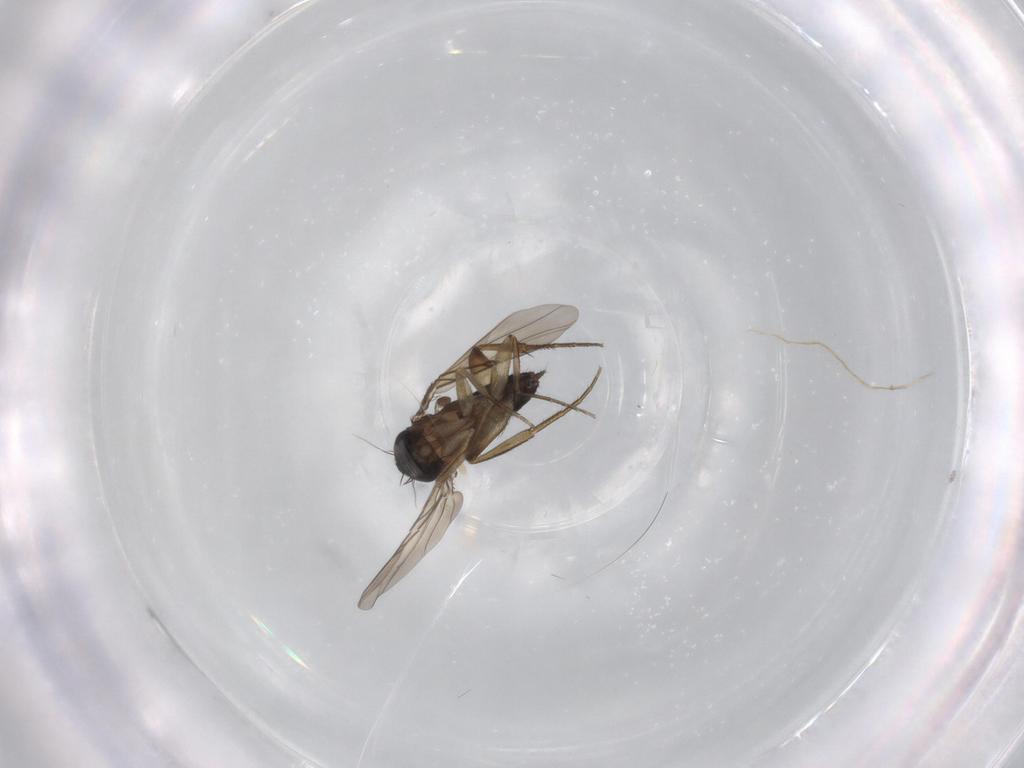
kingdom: Animalia
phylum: Arthropoda
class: Insecta
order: Diptera
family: Phoridae
